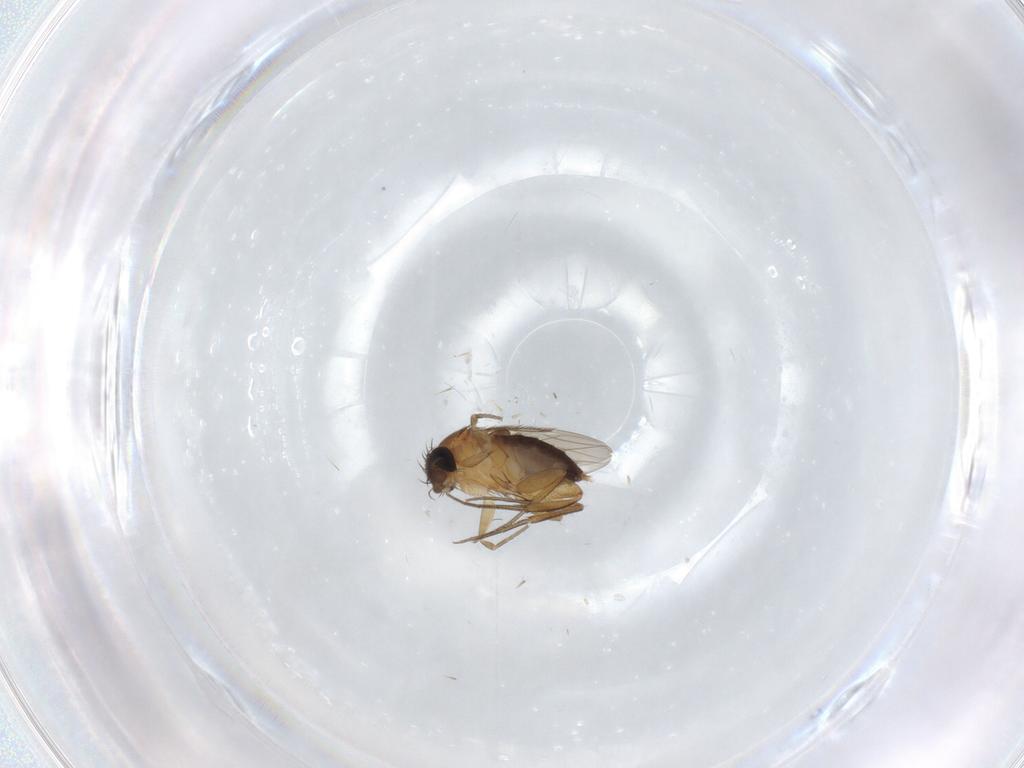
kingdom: Animalia
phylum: Arthropoda
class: Insecta
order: Diptera
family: Phoridae
